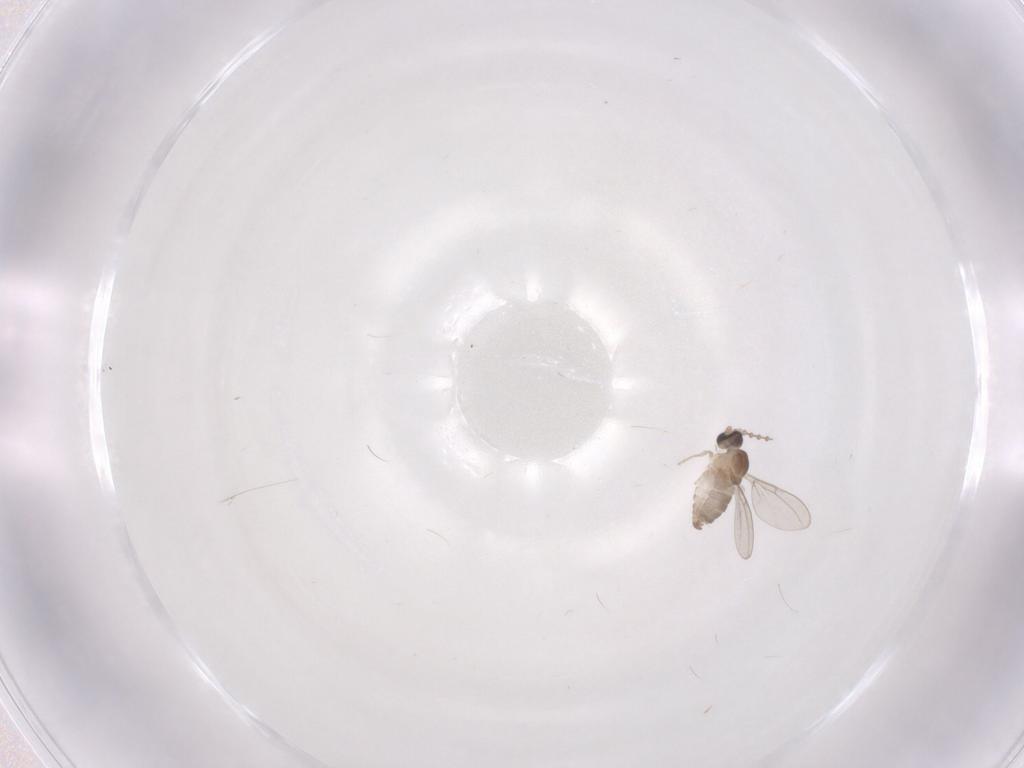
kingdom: Animalia
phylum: Arthropoda
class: Insecta
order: Diptera
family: Cecidomyiidae
